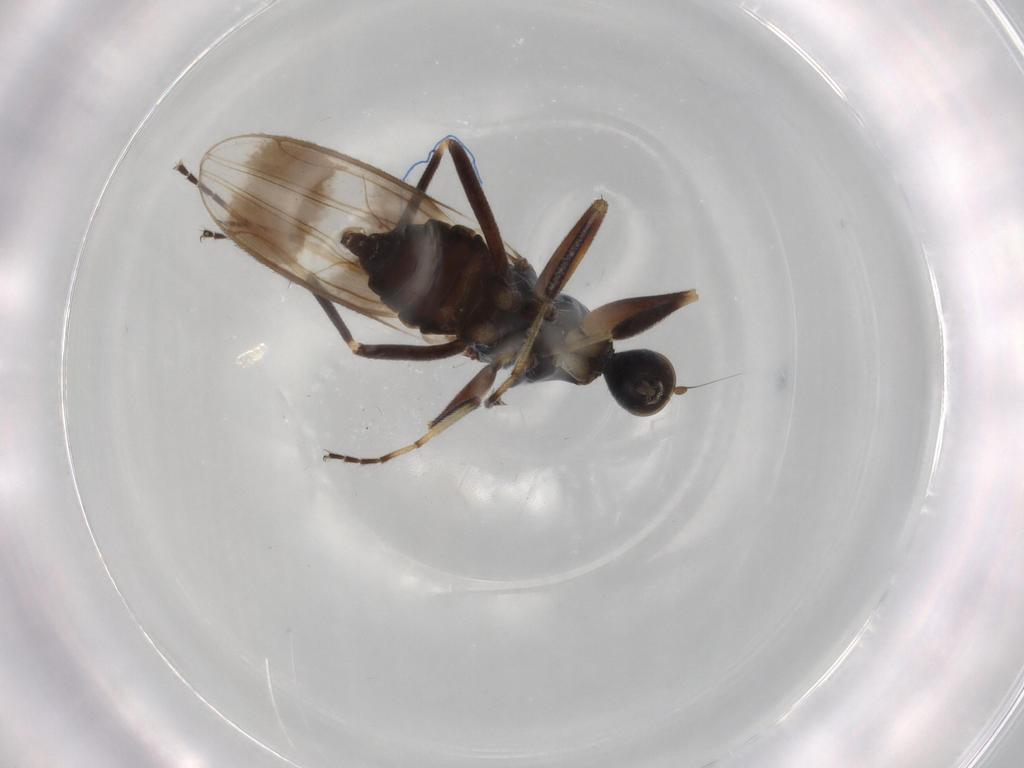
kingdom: Animalia
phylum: Arthropoda
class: Insecta
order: Diptera
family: Hybotidae
